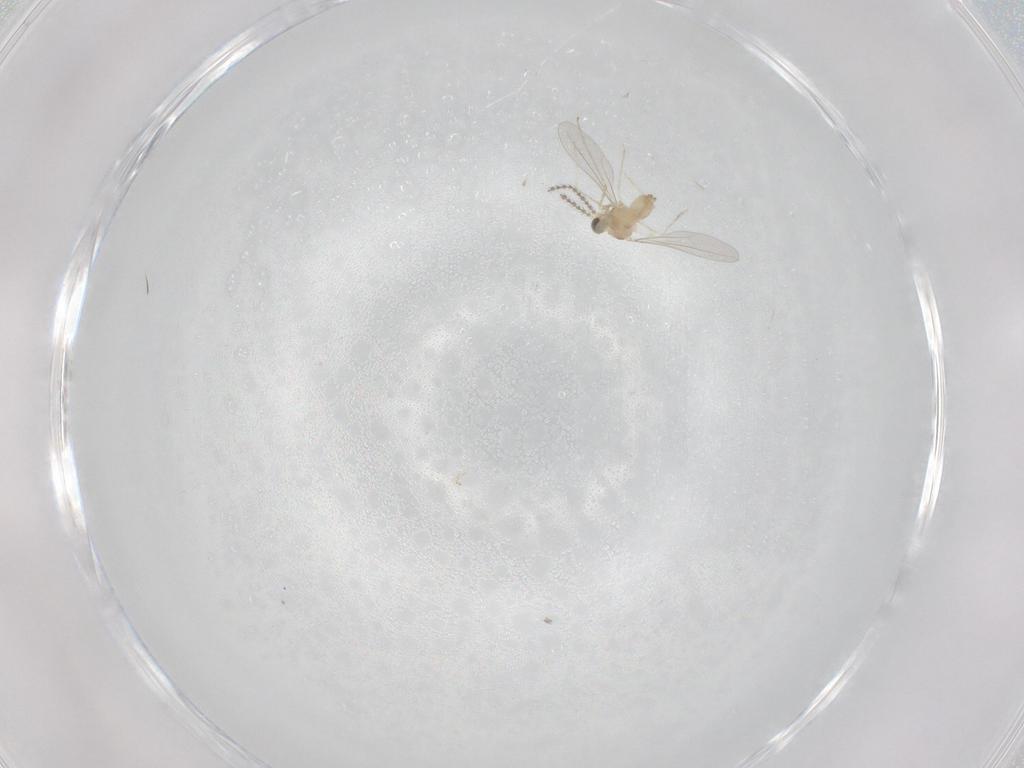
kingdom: Animalia
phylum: Arthropoda
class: Insecta
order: Diptera
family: Cecidomyiidae
